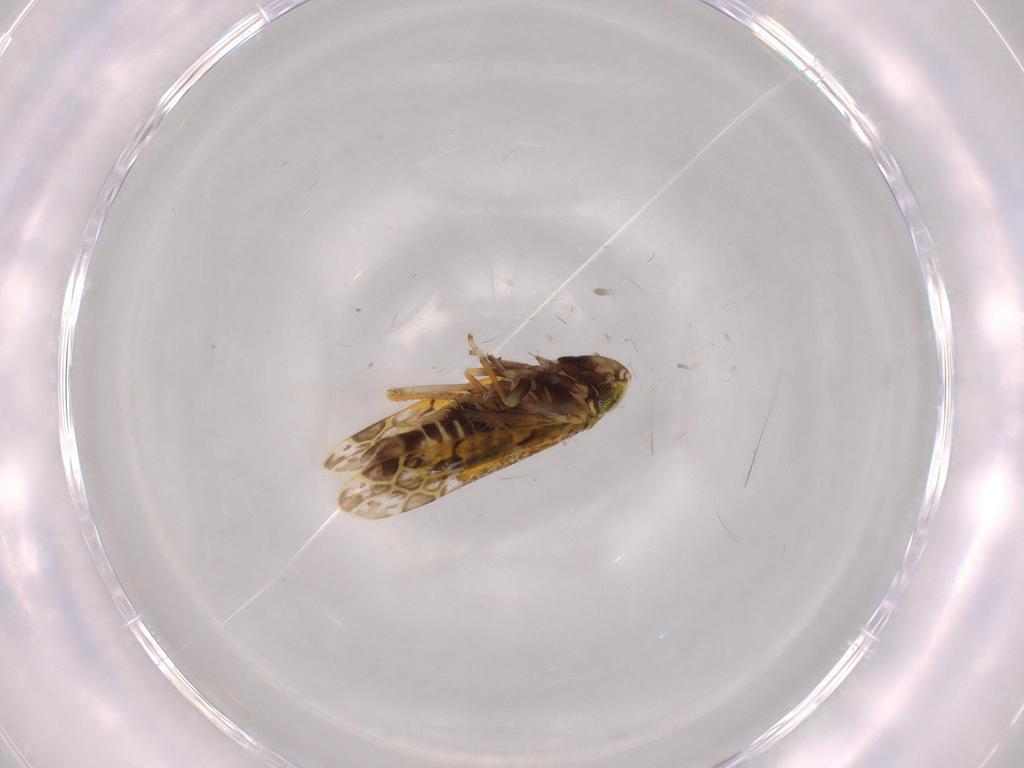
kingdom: Animalia
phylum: Arthropoda
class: Insecta
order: Hemiptera
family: Cicadellidae
